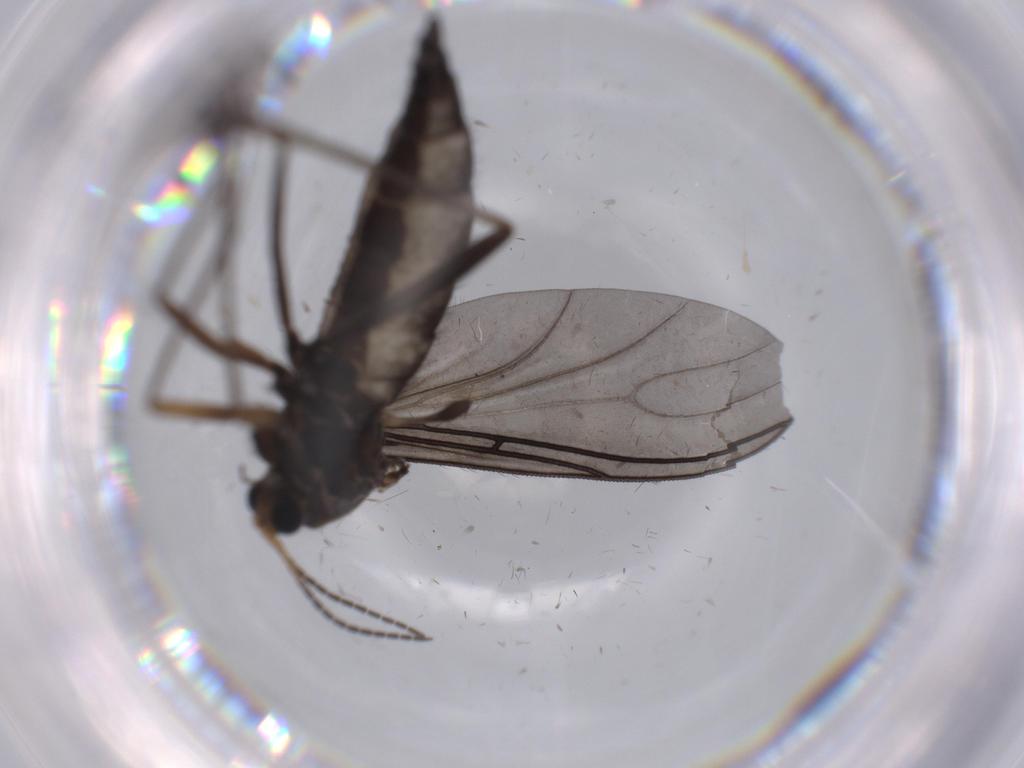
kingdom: Animalia
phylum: Arthropoda
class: Insecta
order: Diptera
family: Sciaridae
